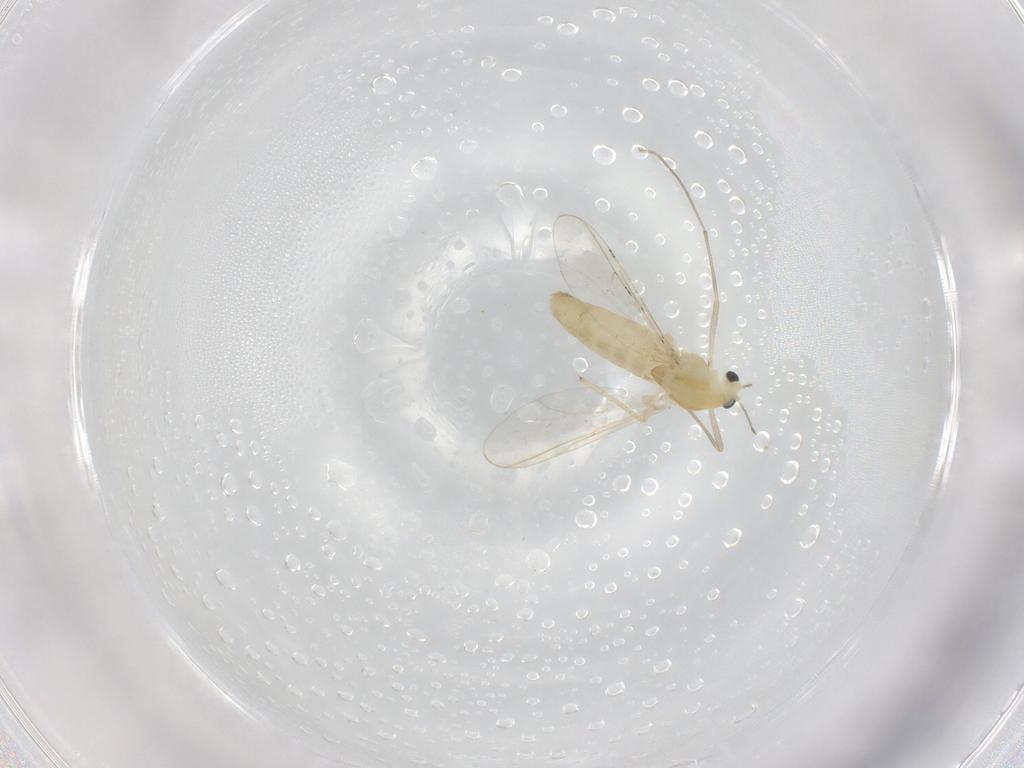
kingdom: Animalia
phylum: Arthropoda
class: Insecta
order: Diptera
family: Chironomidae
